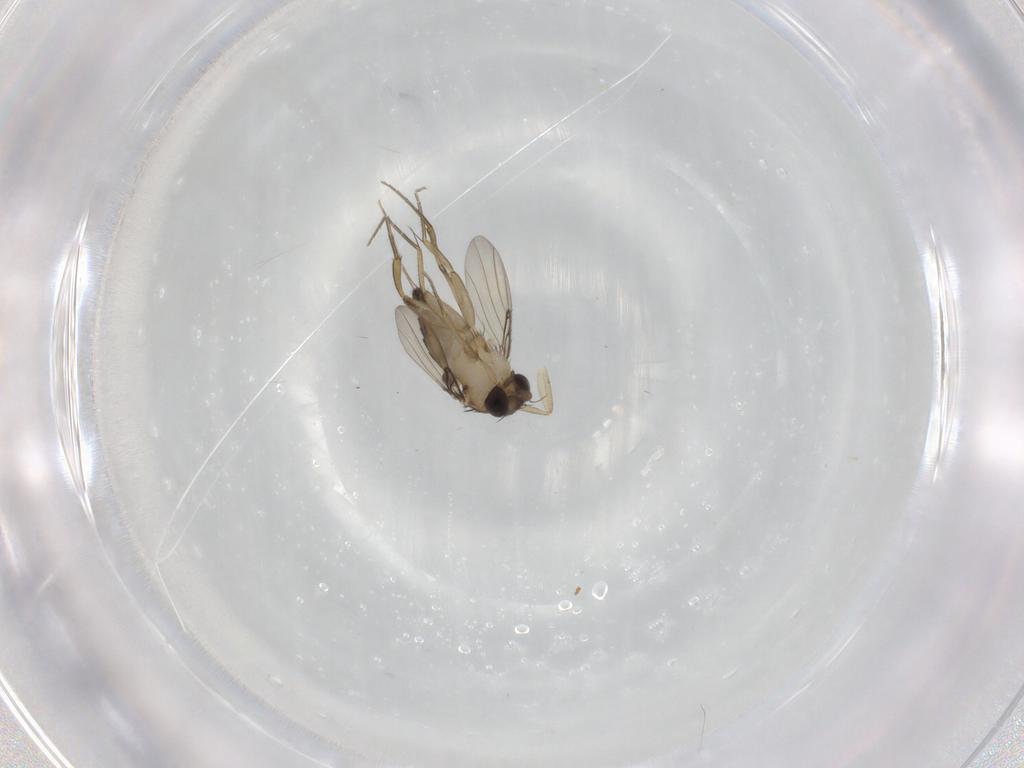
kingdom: Animalia
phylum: Arthropoda
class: Insecta
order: Diptera
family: Phoridae
